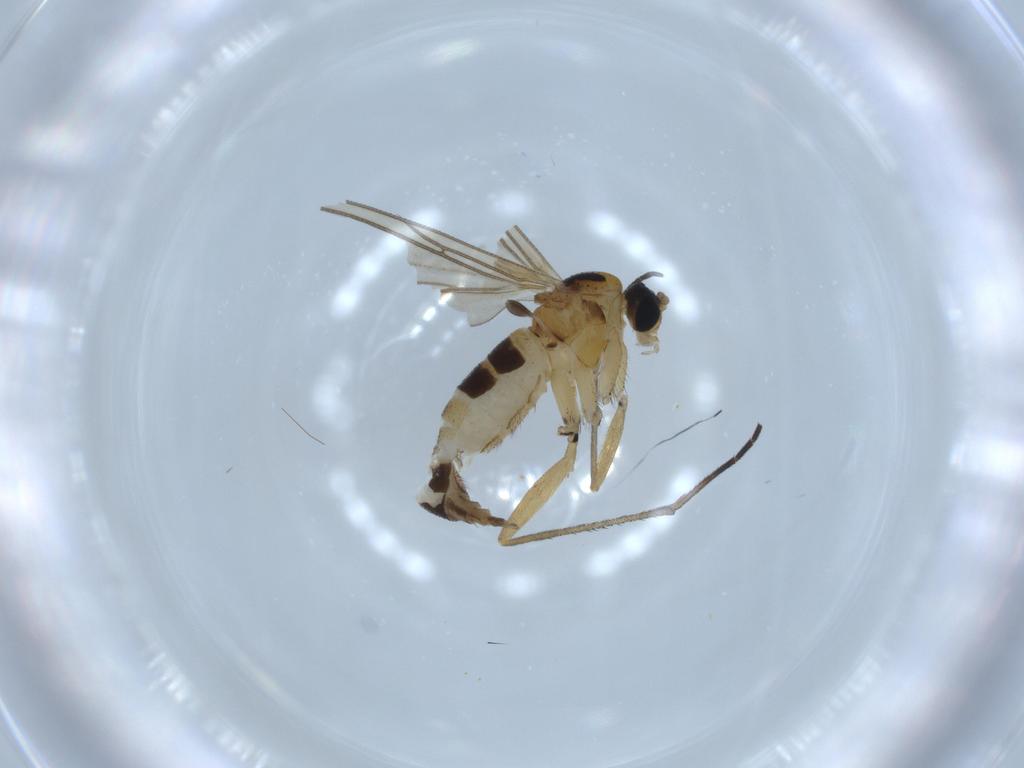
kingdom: Animalia
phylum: Arthropoda
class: Insecta
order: Diptera
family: Sciaridae
